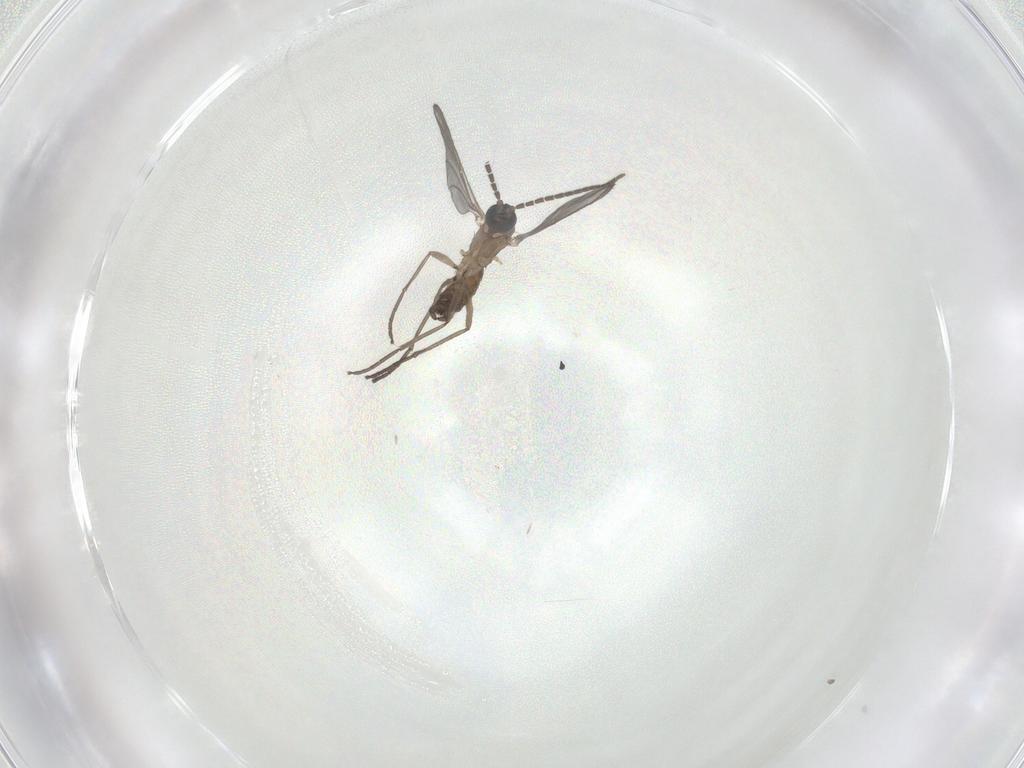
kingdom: Animalia
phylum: Arthropoda
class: Insecta
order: Diptera
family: Sciaridae
